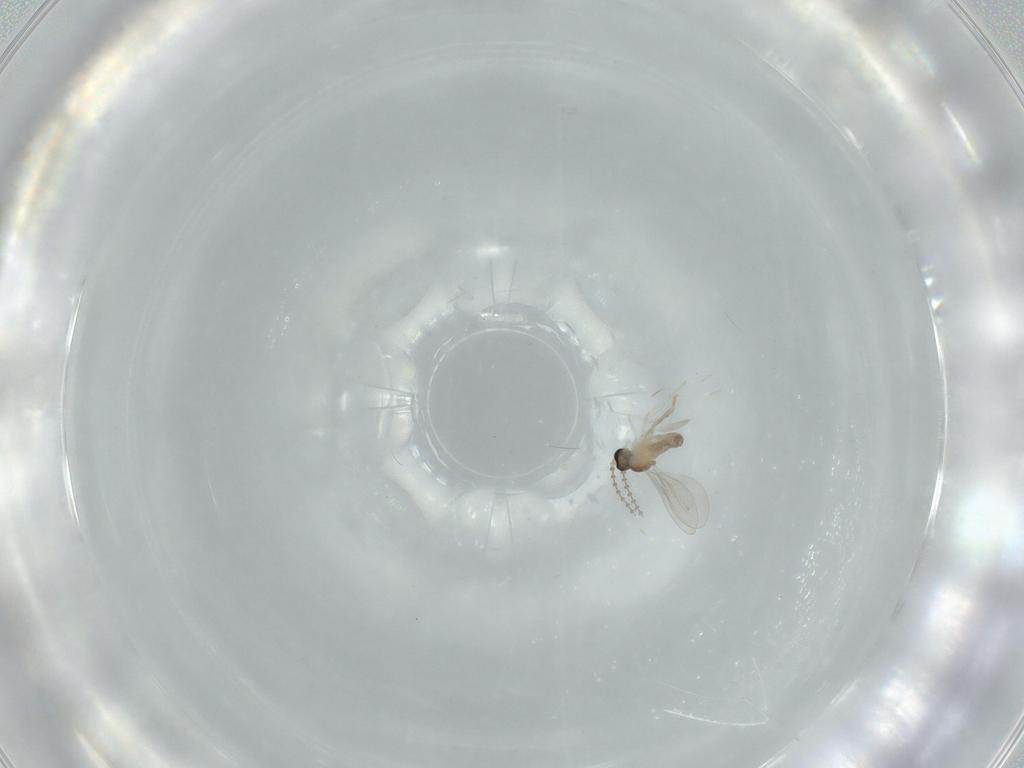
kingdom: Animalia
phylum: Arthropoda
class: Insecta
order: Diptera
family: Cecidomyiidae
